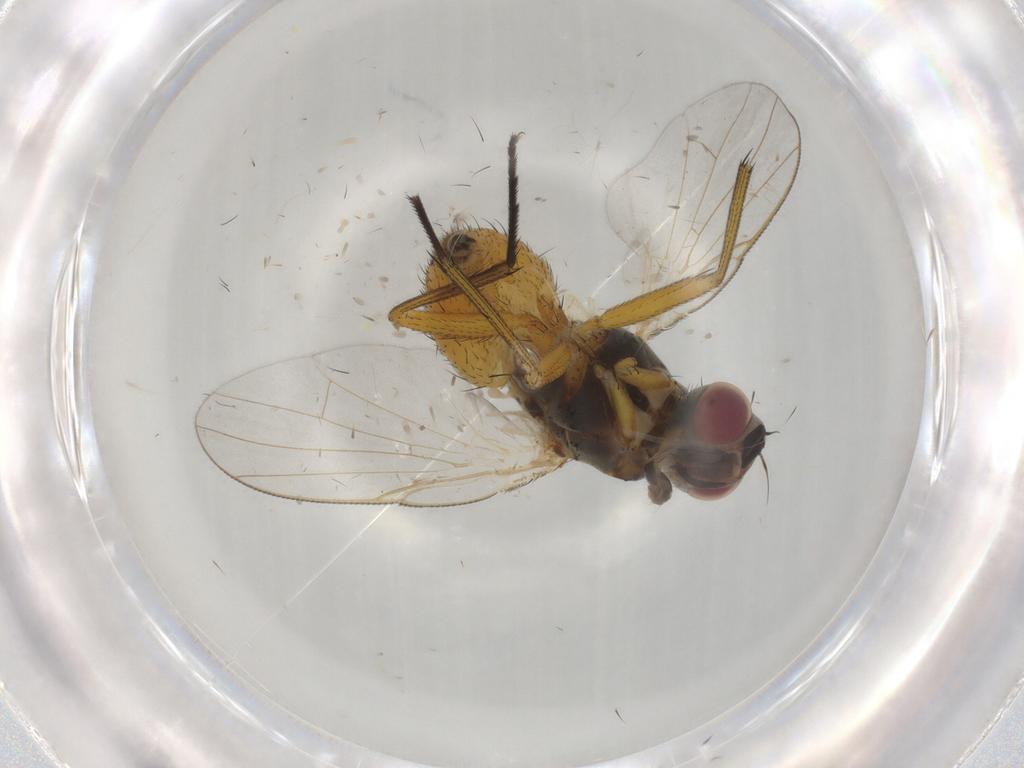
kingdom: Animalia
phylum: Arthropoda
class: Insecta
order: Diptera
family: Muscidae
